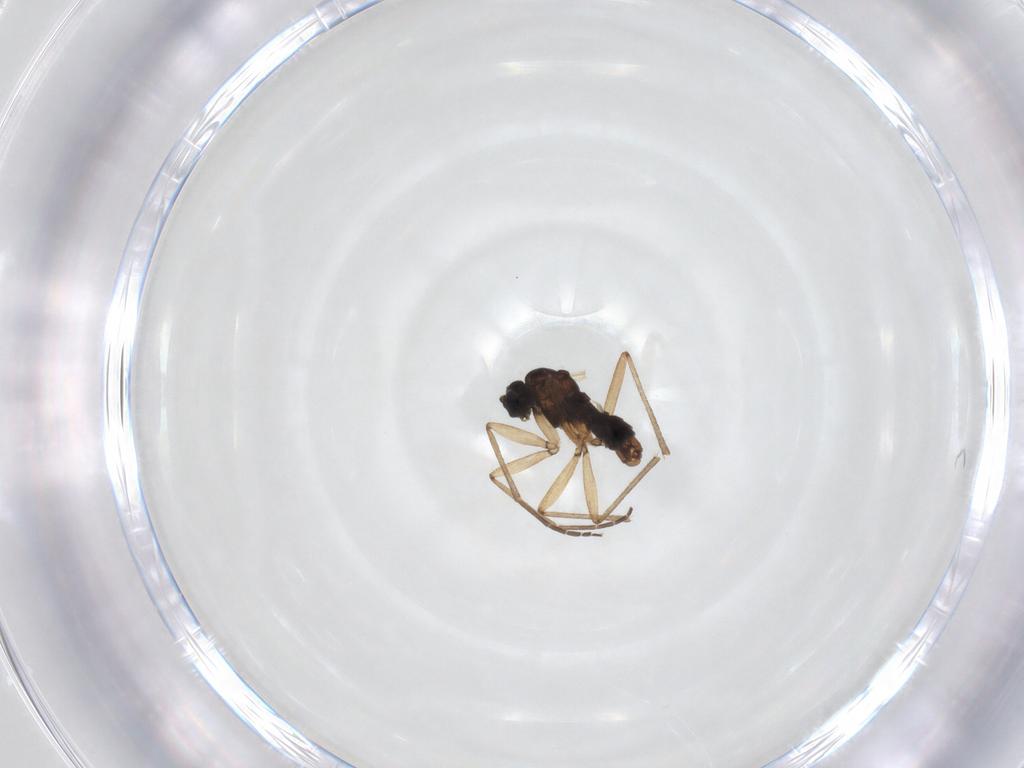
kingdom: Animalia
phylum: Arthropoda
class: Insecta
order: Diptera
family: Sciaridae
